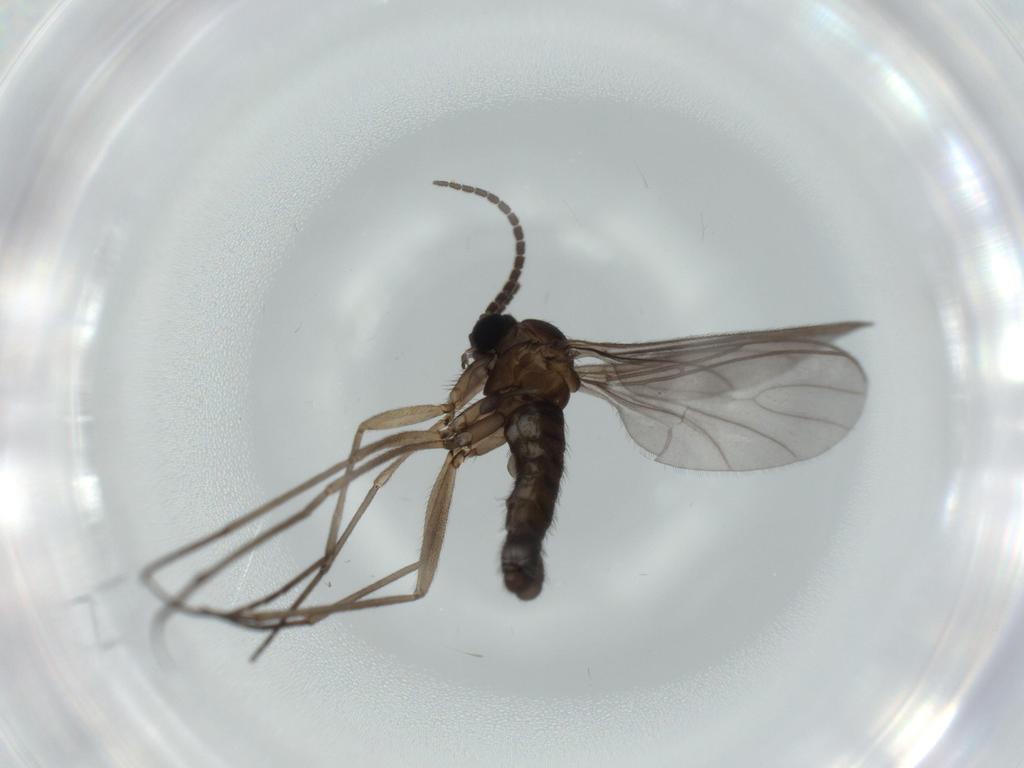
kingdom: Animalia
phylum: Arthropoda
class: Insecta
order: Diptera
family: Sciaridae
